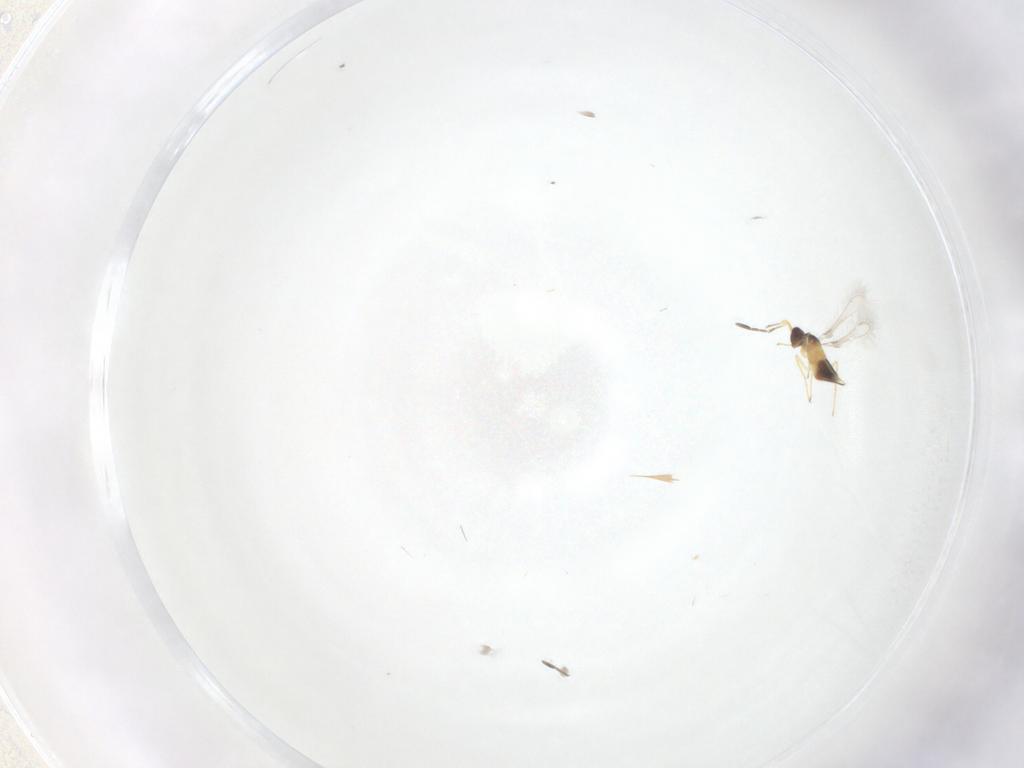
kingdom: Animalia
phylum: Arthropoda
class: Insecta
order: Hymenoptera
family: Mymaridae
